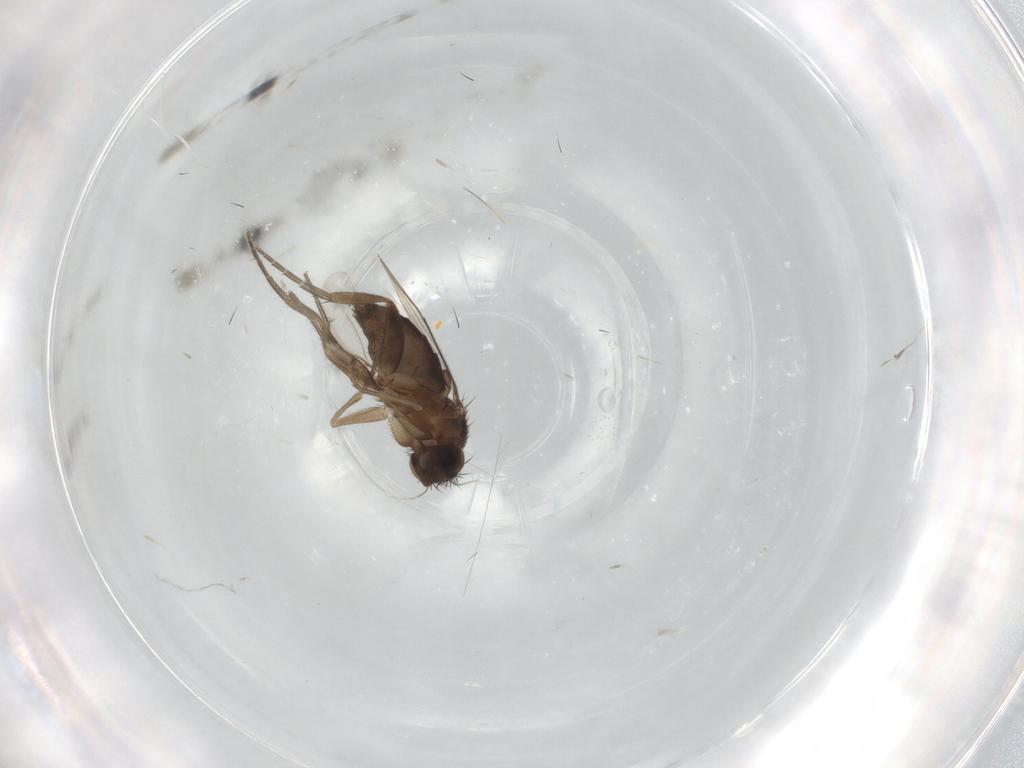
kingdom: Animalia
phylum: Arthropoda
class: Insecta
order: Diptera
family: Phoridae
